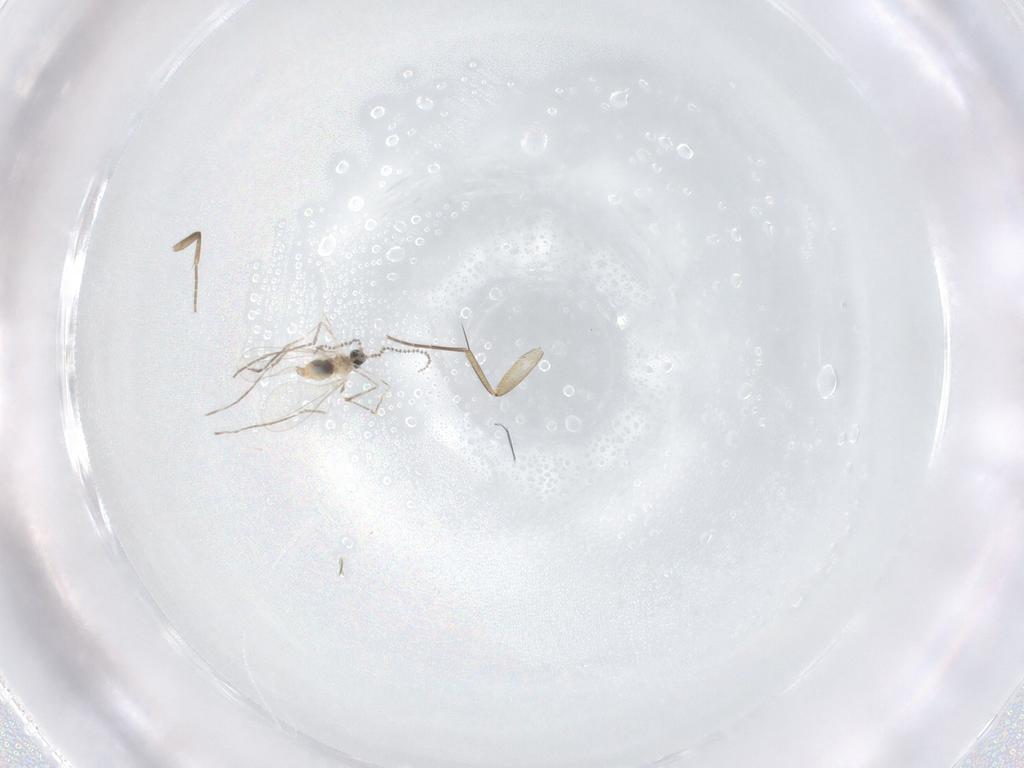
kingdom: Animalia
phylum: Arthropoda
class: Insecta
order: Diptera
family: Cecidomyiidae
